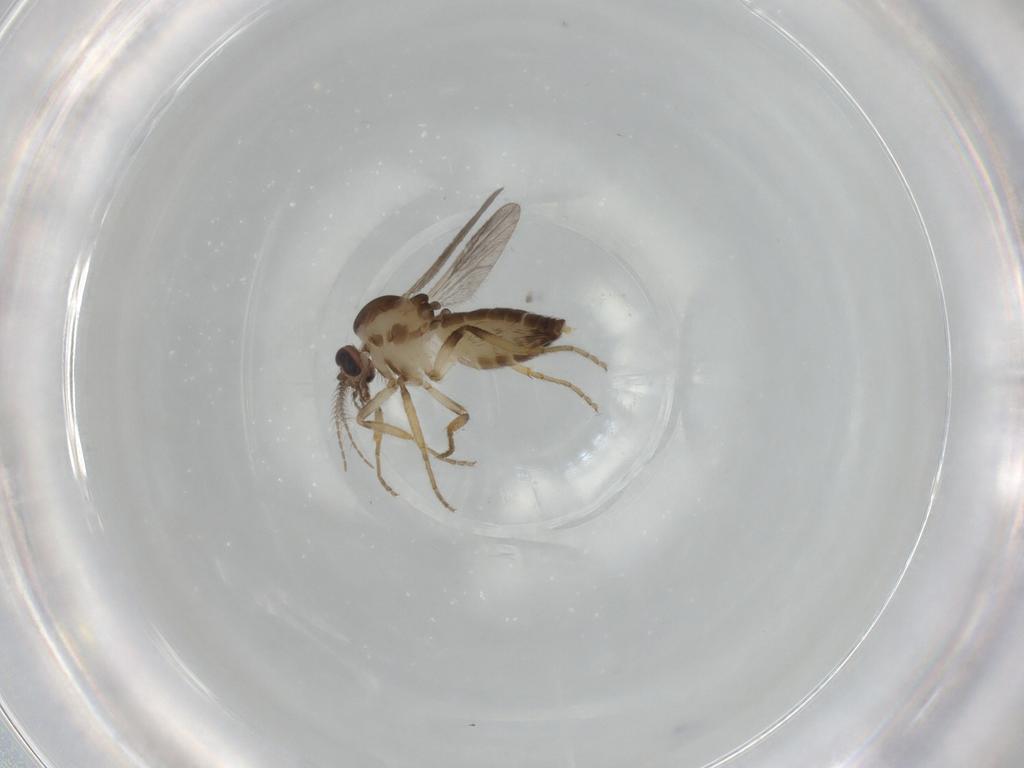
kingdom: Animalia
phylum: Arthropoda
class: Insecta
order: Diptera
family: Ceratopogonidae
